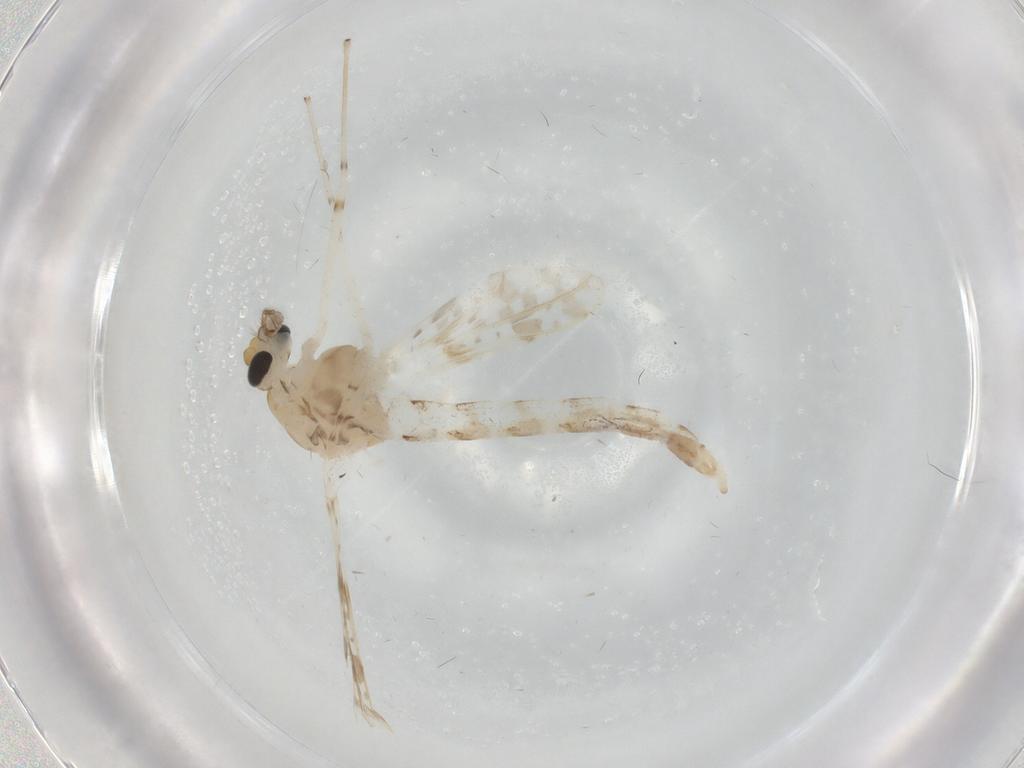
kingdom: Animalia
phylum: Arthropoda
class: Insecta
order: Diptera
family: Chironomidae
